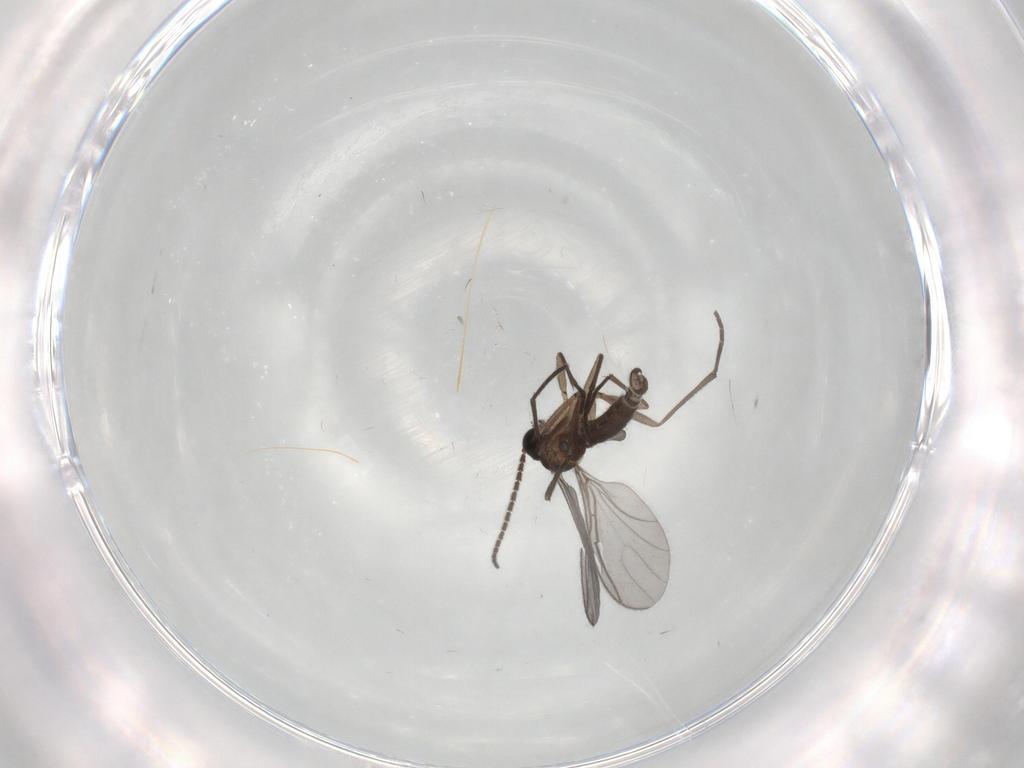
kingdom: Animalia
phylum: Arthropoda
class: Insecta
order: Diptera
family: Sciaridae
